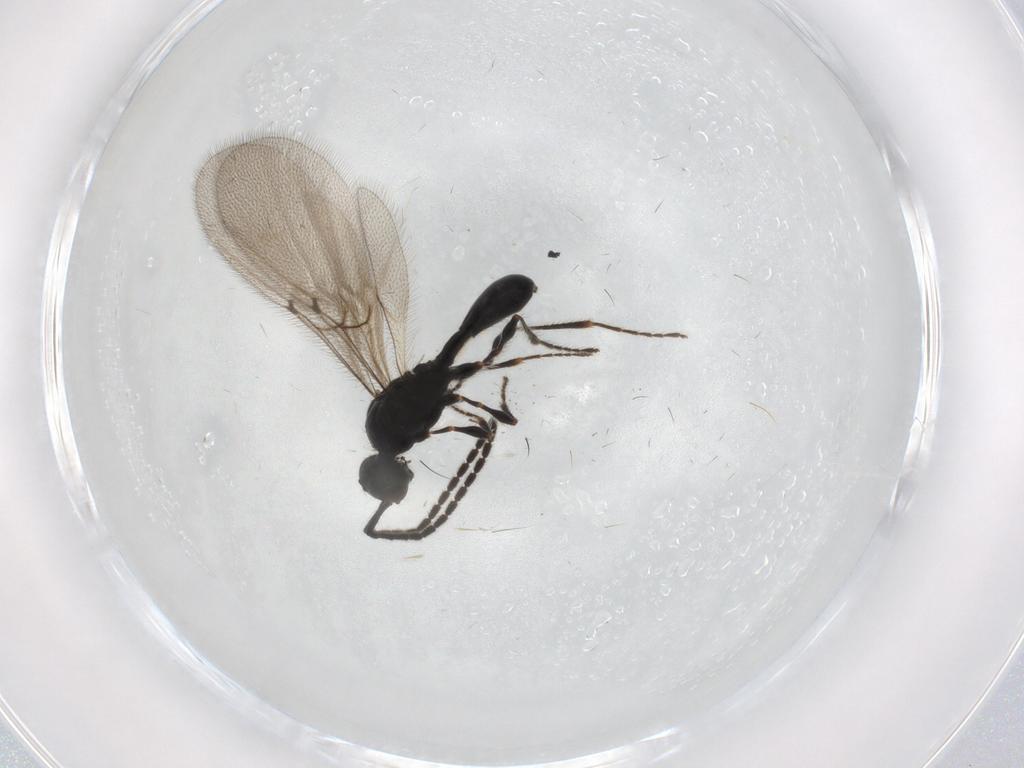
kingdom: Animalia
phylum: Arthropoda
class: Insecta
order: Hymenoptera
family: Diapriidae
